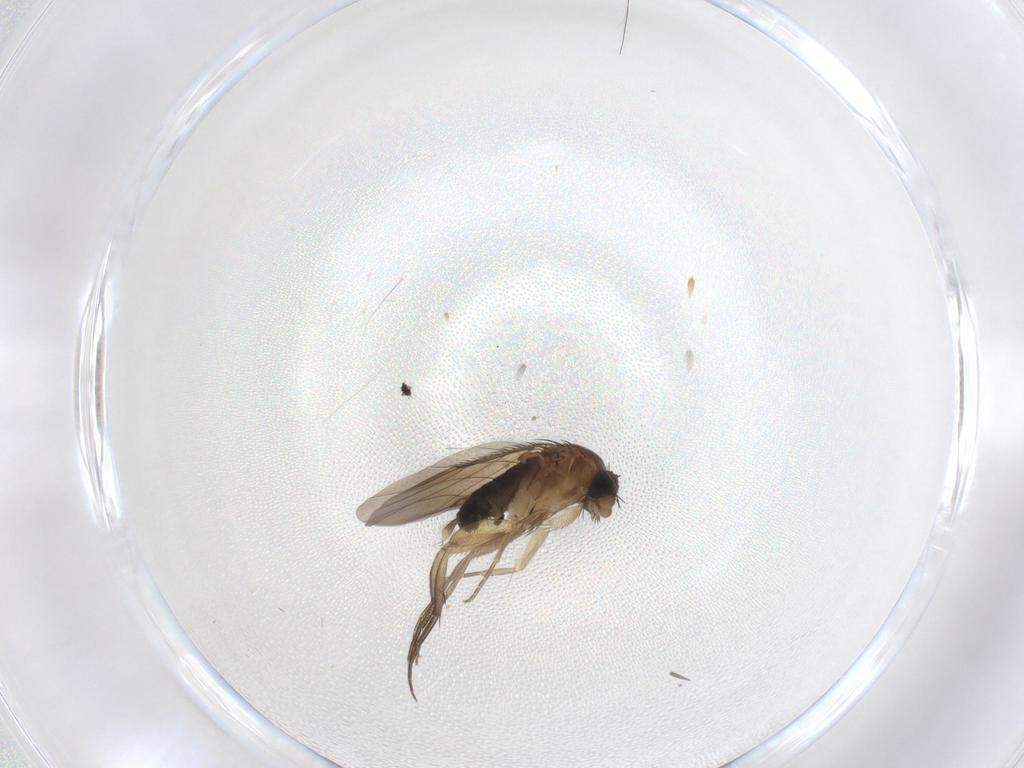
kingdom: Animalia
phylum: Arthropoda
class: Insecta
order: Diptera
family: Phoridae
